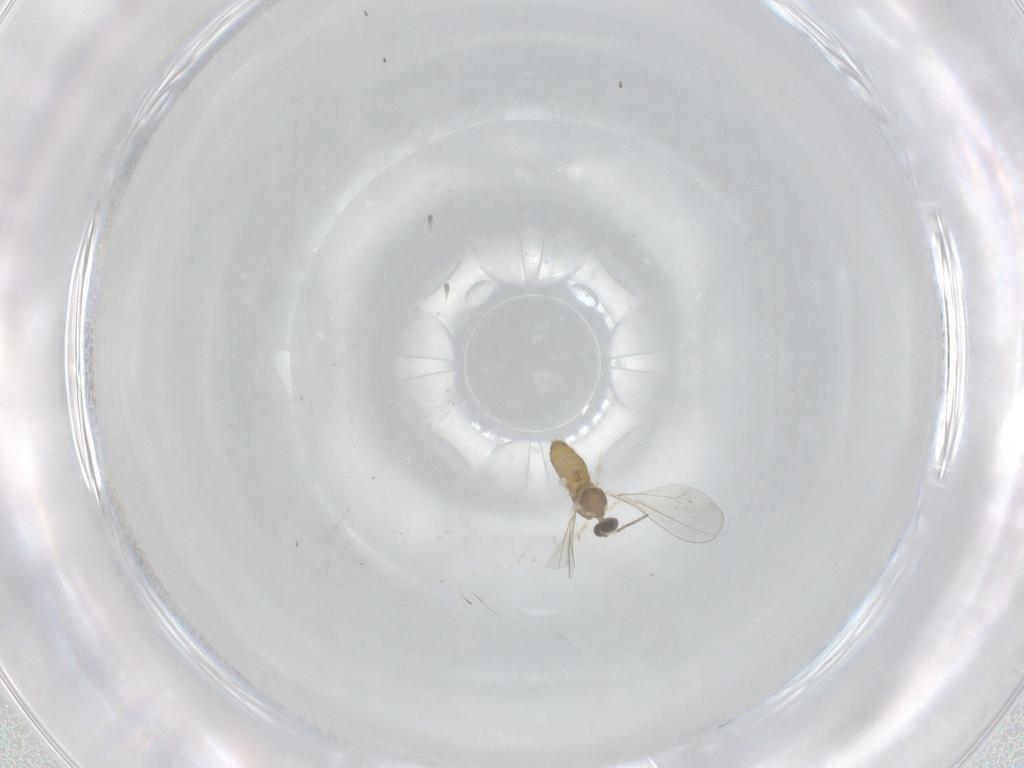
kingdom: Animalia
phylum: Arthropoda
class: Insecta
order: Diptera
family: Cecidomyiidae
